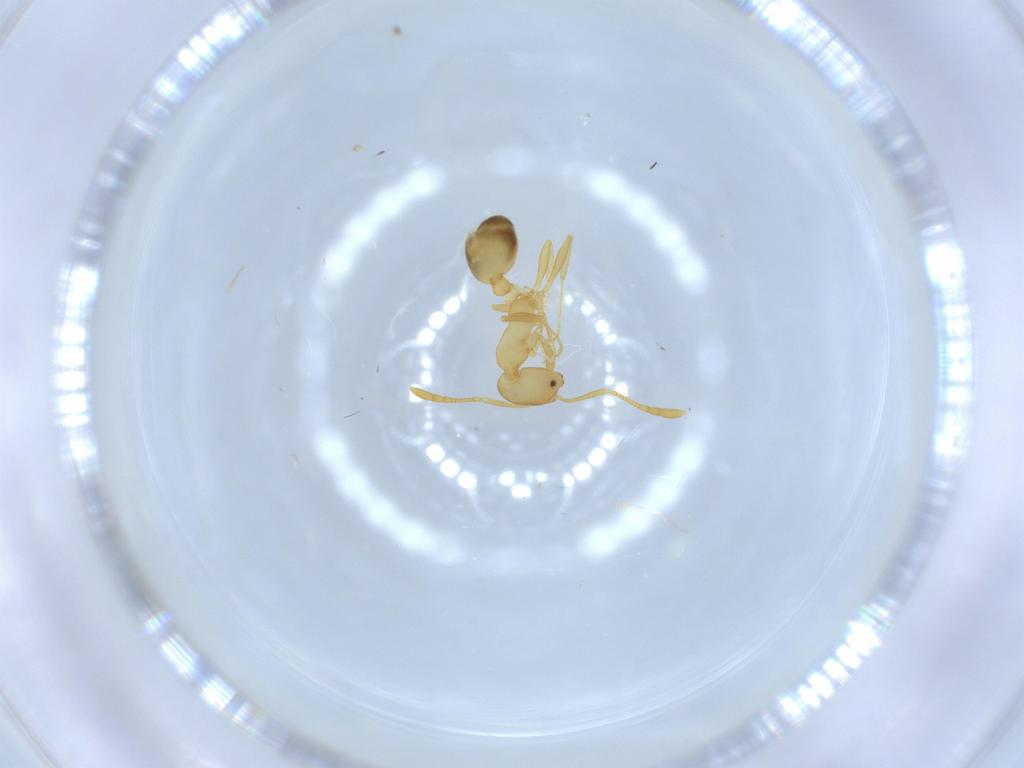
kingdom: Animalia
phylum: Arthropoda
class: Insecta
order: Hymenoptera
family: Formicidae
